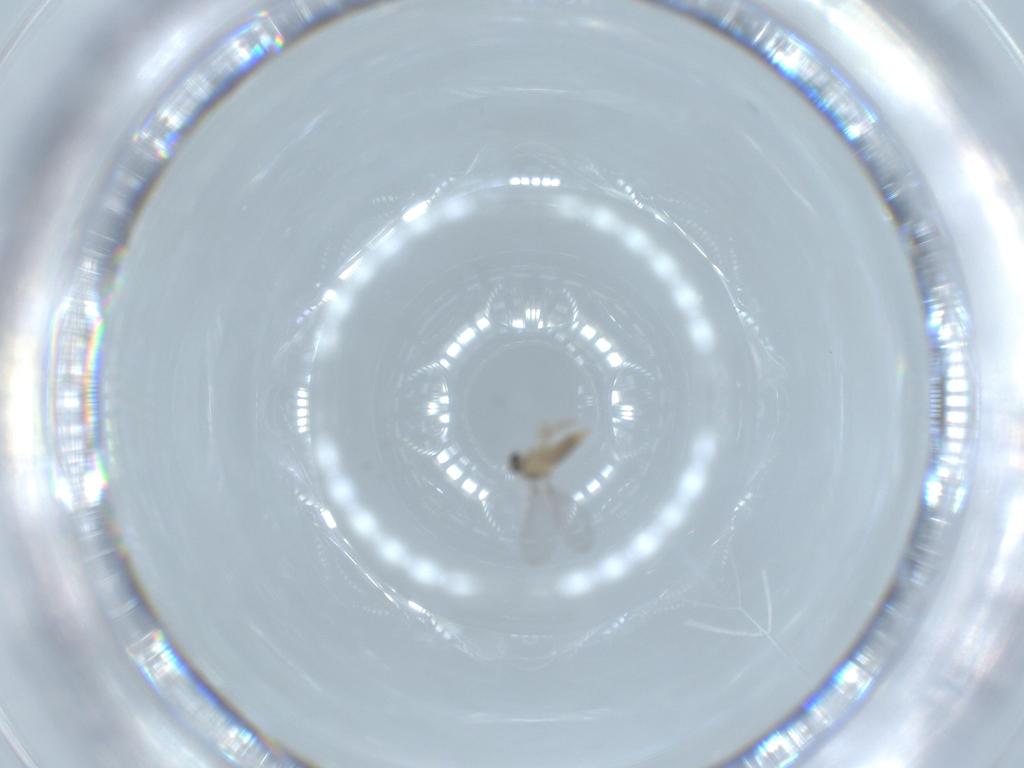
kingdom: Animalia
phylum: Arthropoda
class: Insecta
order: Diptera
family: Cecidomyiidae
